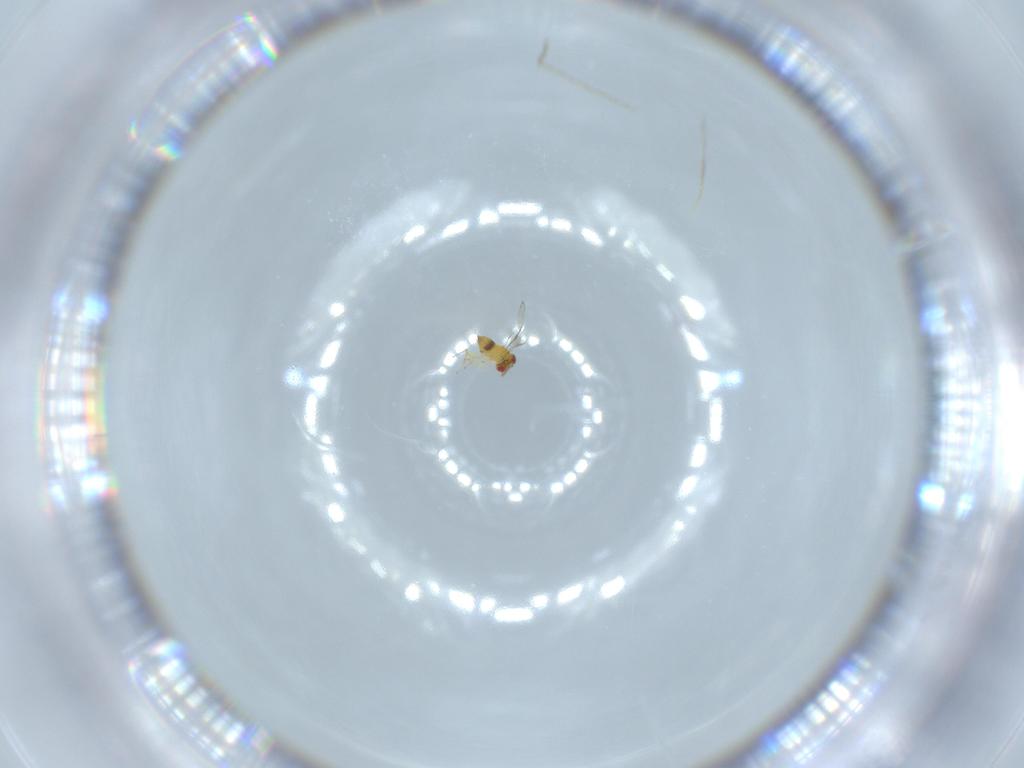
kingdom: Animalia
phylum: Arthropoda
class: Insecta
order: Hymenoptera
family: Trichogrammatidae
